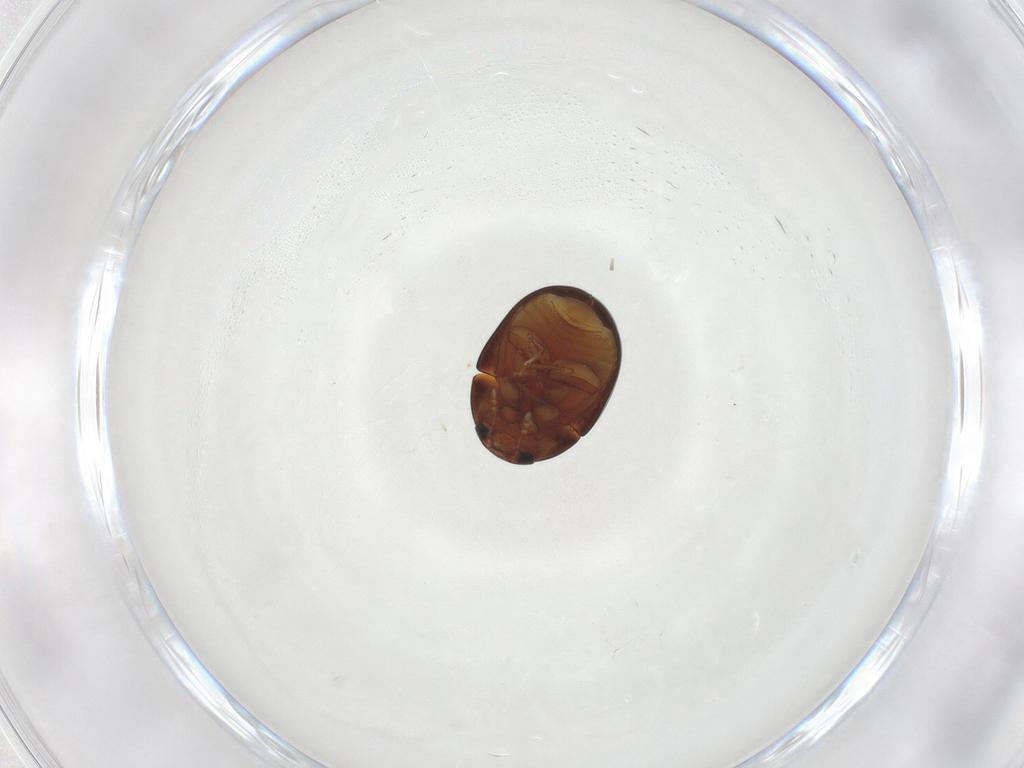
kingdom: Animalia
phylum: Arthropoda
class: Insecta
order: Coleoptera
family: Phalacridae
